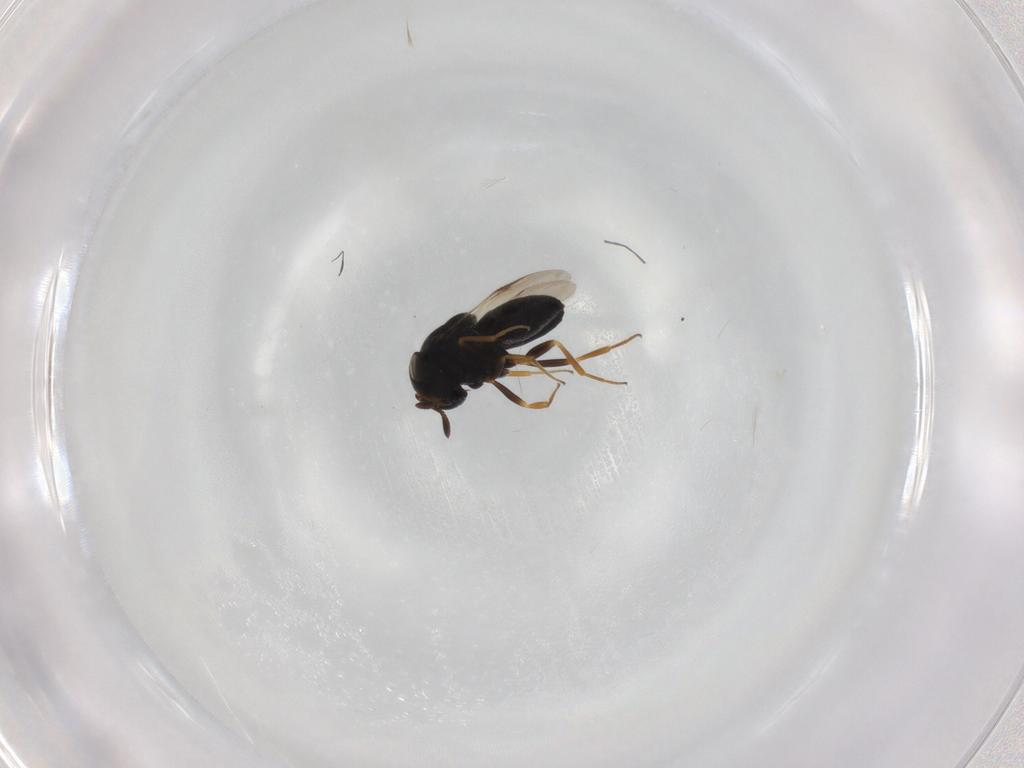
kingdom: Animalia
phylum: Arthropoda
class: Insecta
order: Hymenoptera
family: Scelionidae
